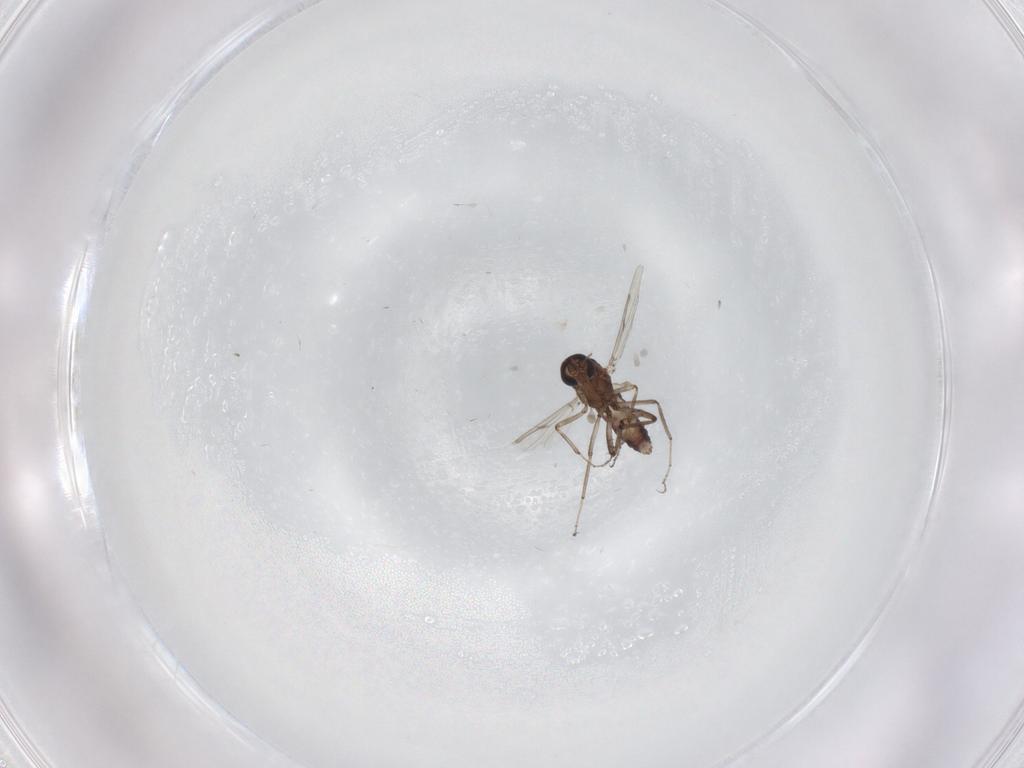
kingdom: Animalia
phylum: Arthropoda
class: Insecta
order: Diptera
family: Ceratopogonidae
